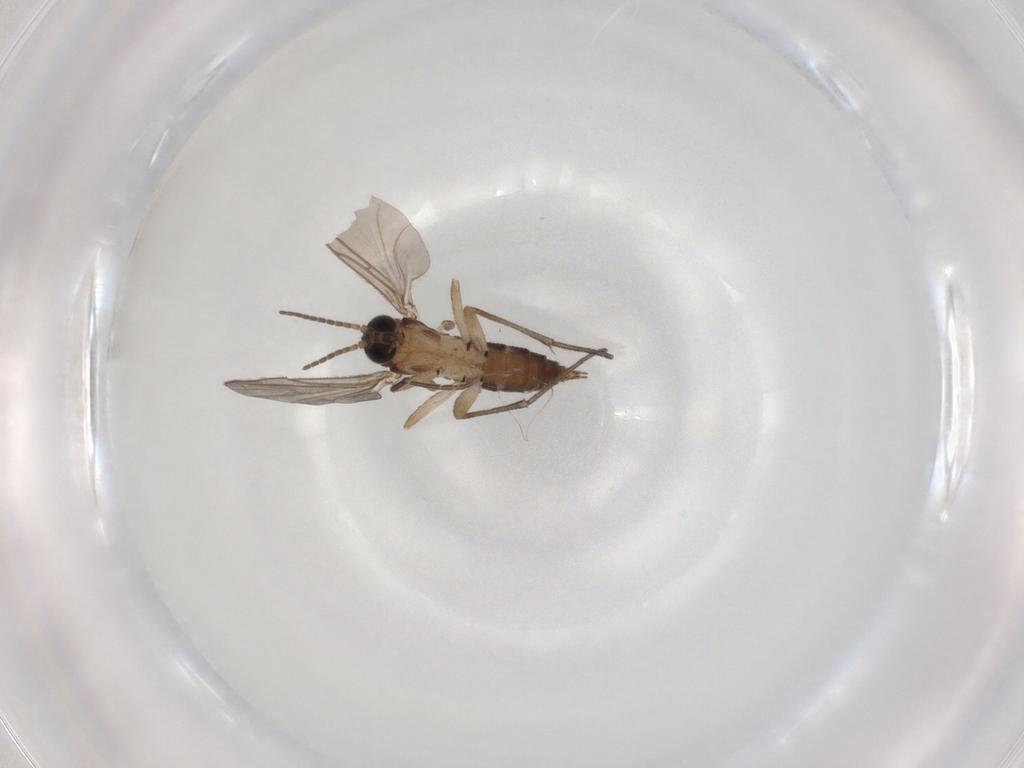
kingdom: Animalia
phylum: Arthropoda
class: Insecta
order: Diptera
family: Sciaridae
